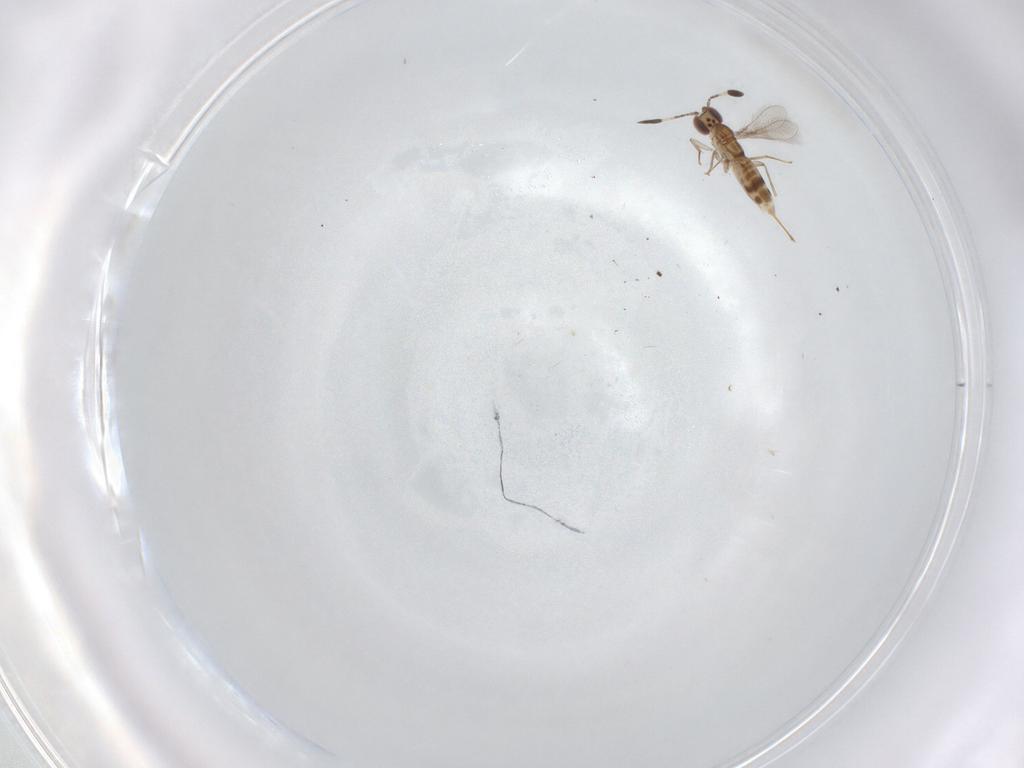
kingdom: Animalia
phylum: Arthropoda
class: Insecta
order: Hymenoptera
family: Mymaridae
